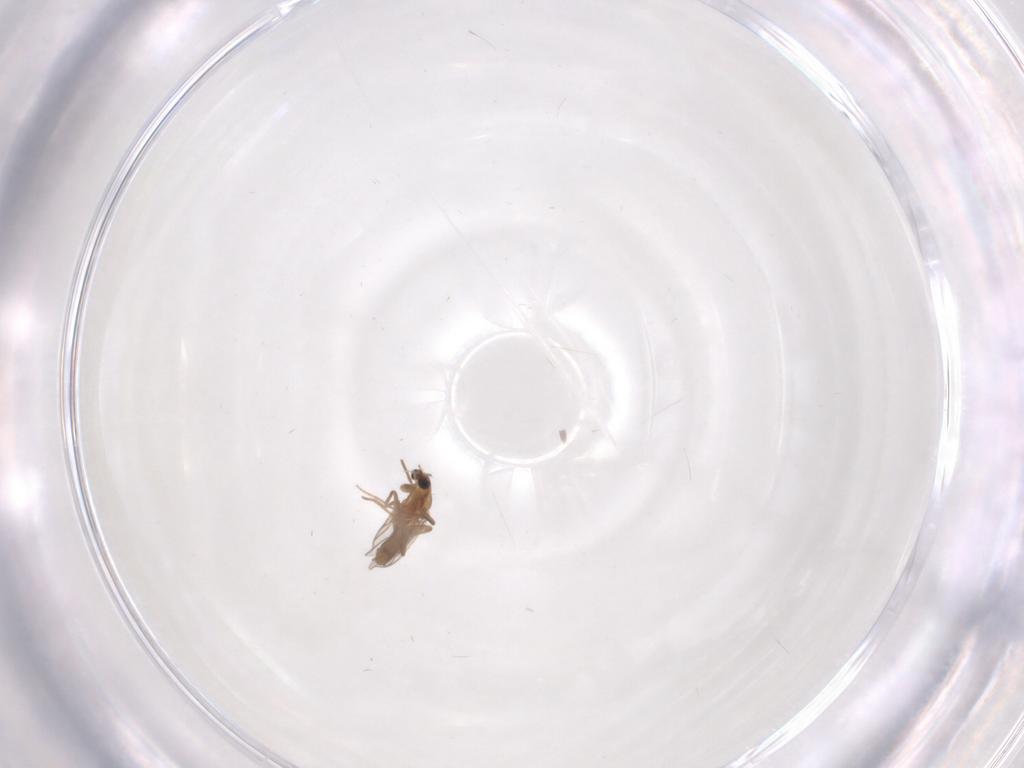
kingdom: Animalia
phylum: Arthropoda
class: Insecta
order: Diptera
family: Chironomidae
